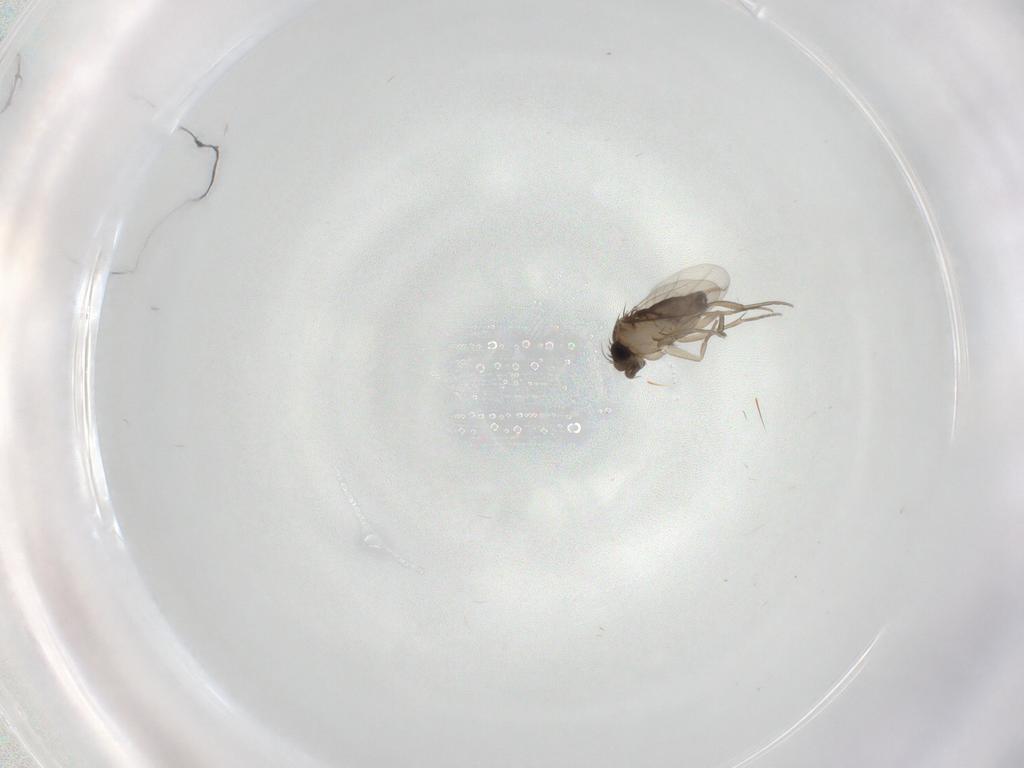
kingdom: Animalia
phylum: Arthropoda
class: Insecta
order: Diptera
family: Phoridae
